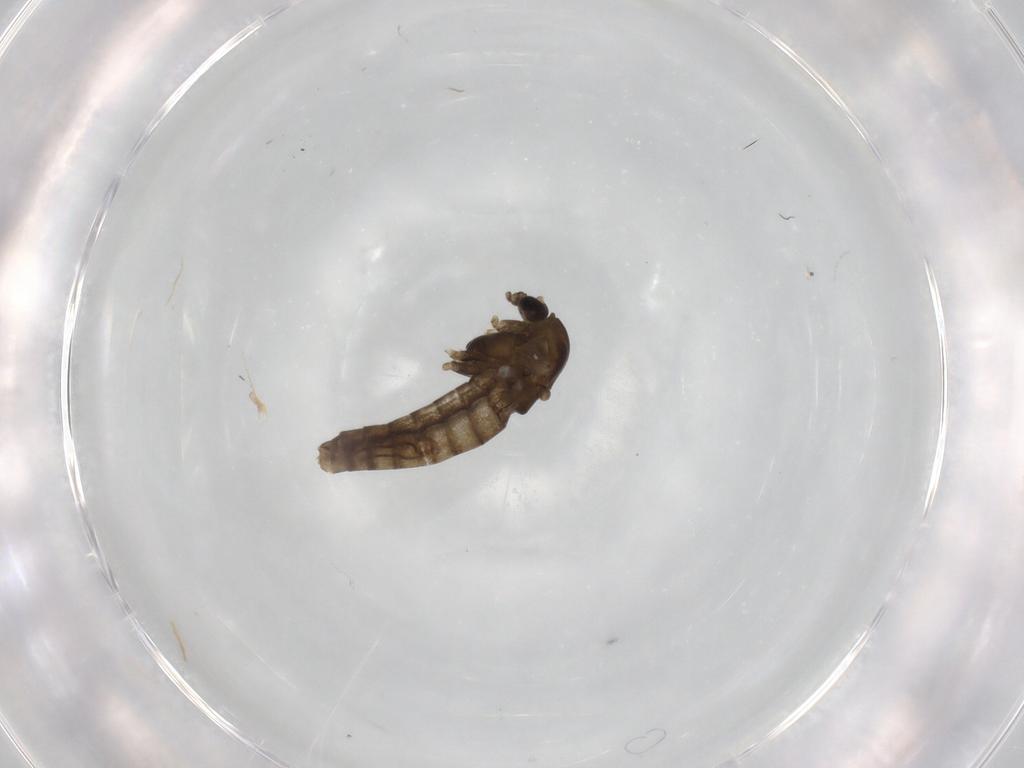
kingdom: Animalia
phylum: Arthropoda
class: Insecta
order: Diptera
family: Chironomidae
